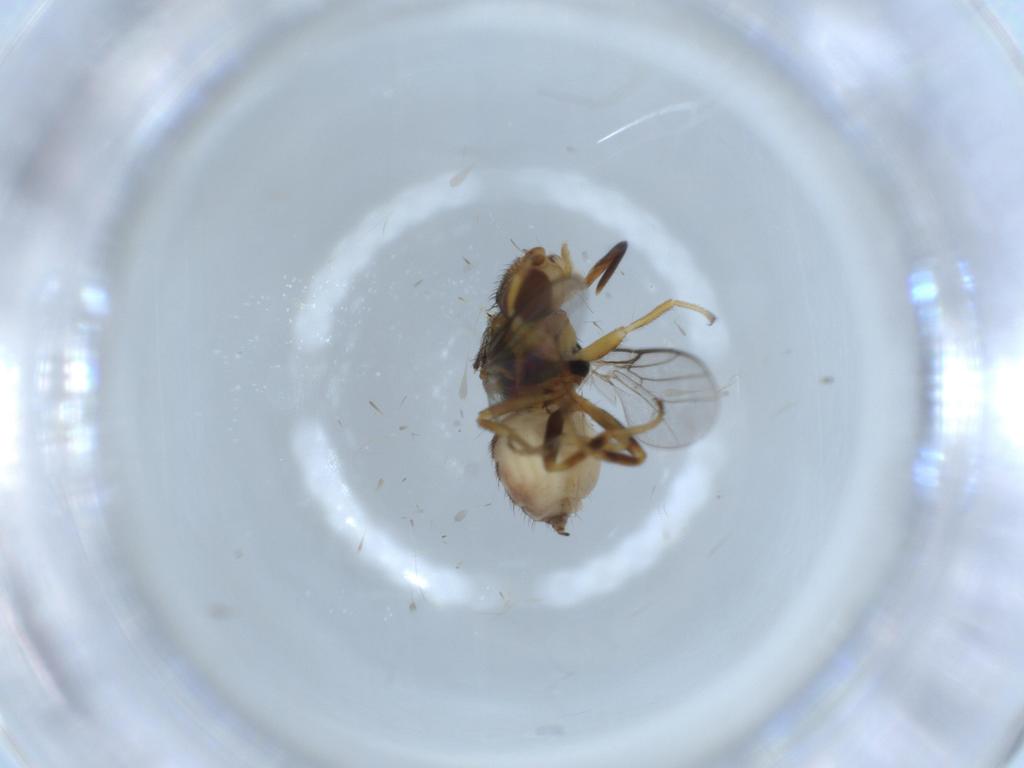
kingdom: Animalia
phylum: Arthropoda
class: Insecta
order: Diptera
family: Chloropidae
